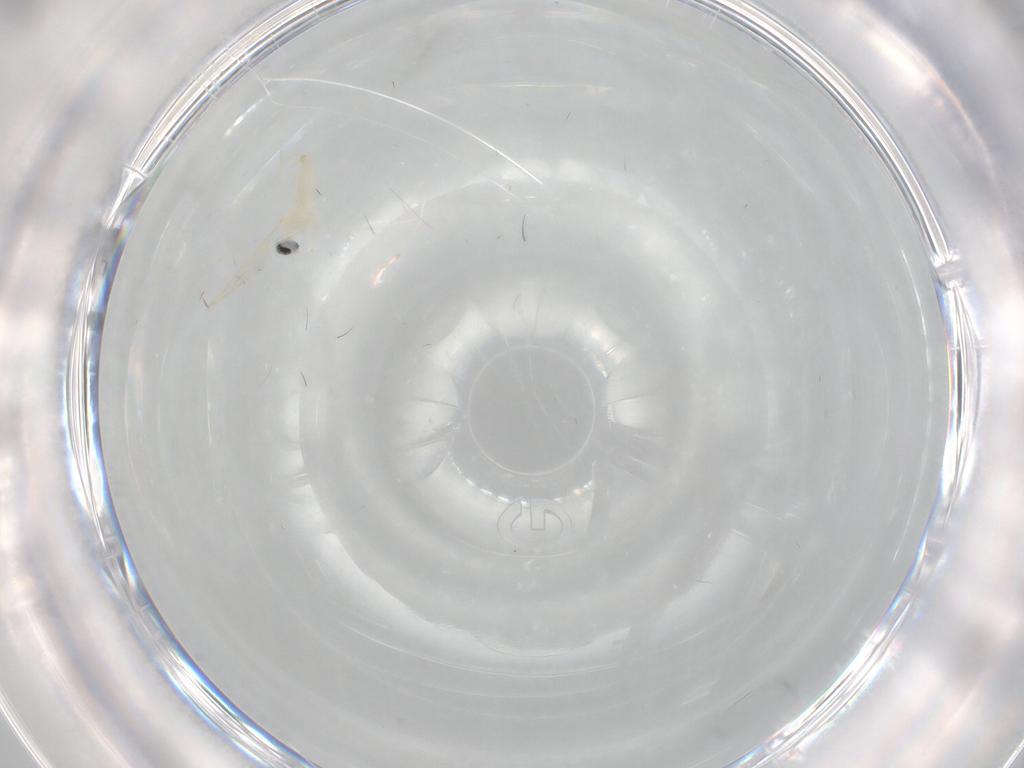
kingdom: Animalia
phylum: Arthropoda
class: Insecta
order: Diptera
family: Cecidomyiidae
